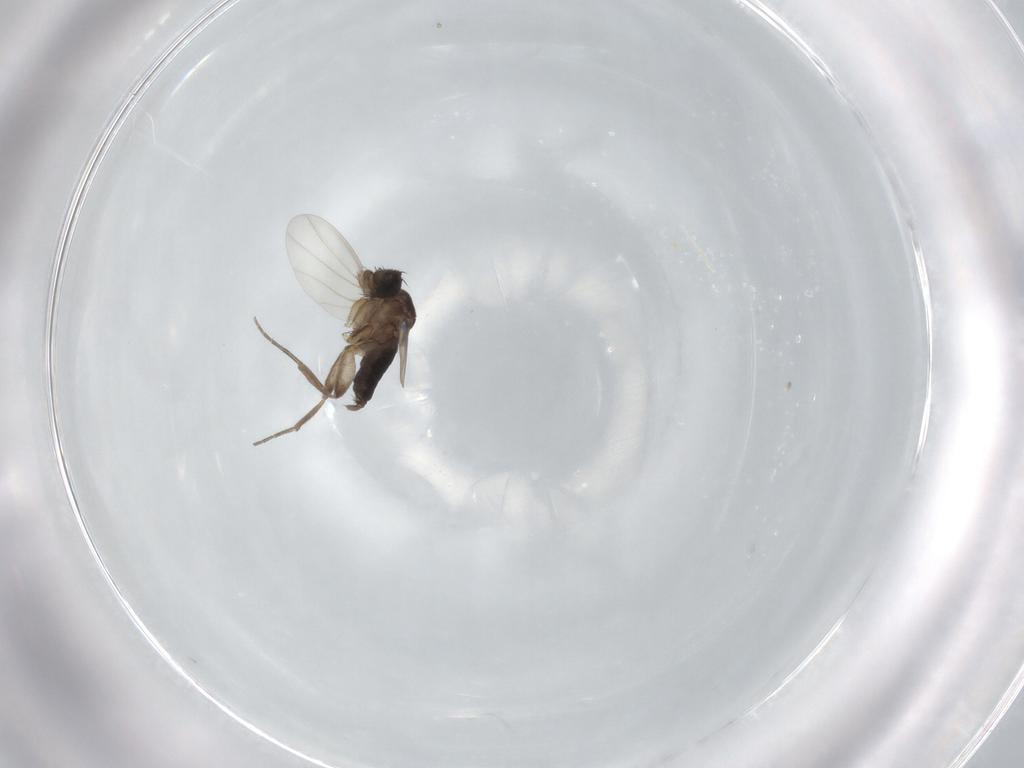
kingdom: Animalia
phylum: Arthropoda
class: Insecta
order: Diptera
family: Phoridae
